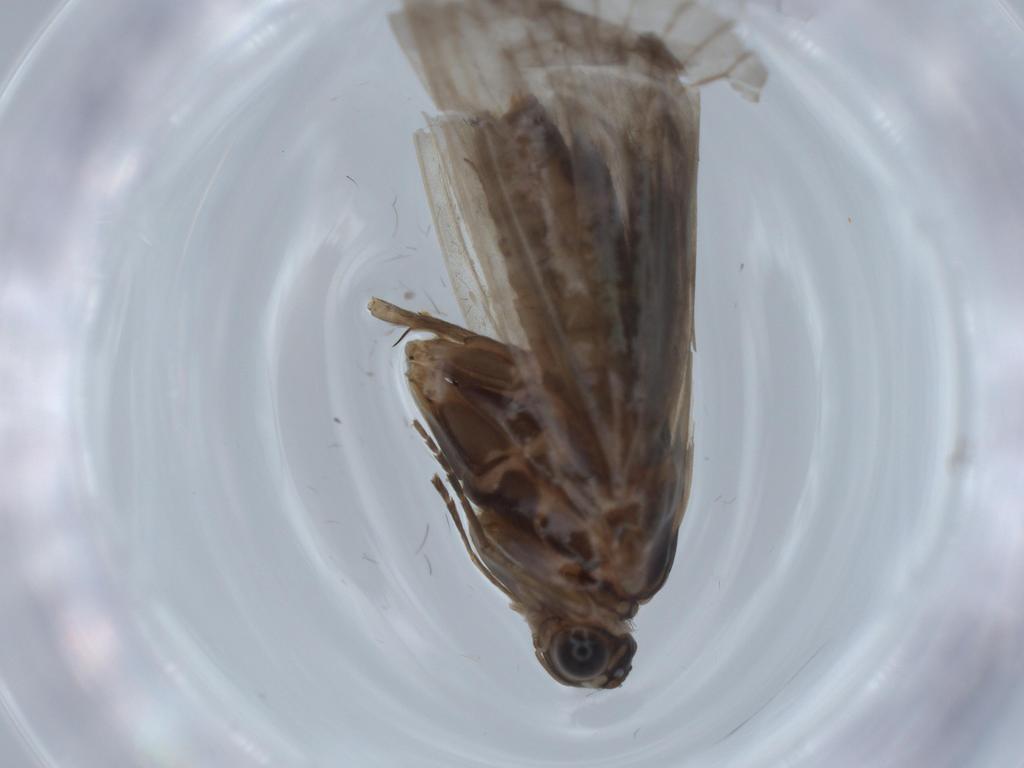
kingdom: Animalia
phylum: Arthropoda
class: Insecta
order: Trichoptera
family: Uenoidae
